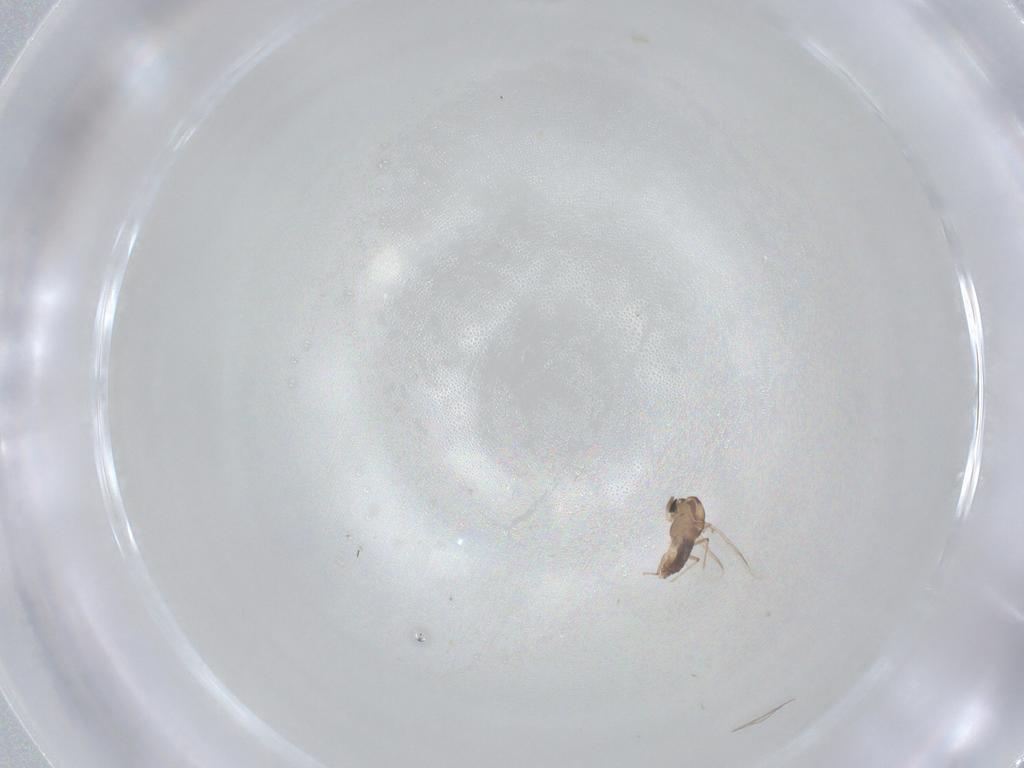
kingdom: Animalia
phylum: Arthropoda
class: Insecta
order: Diptera
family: Chironomidae
